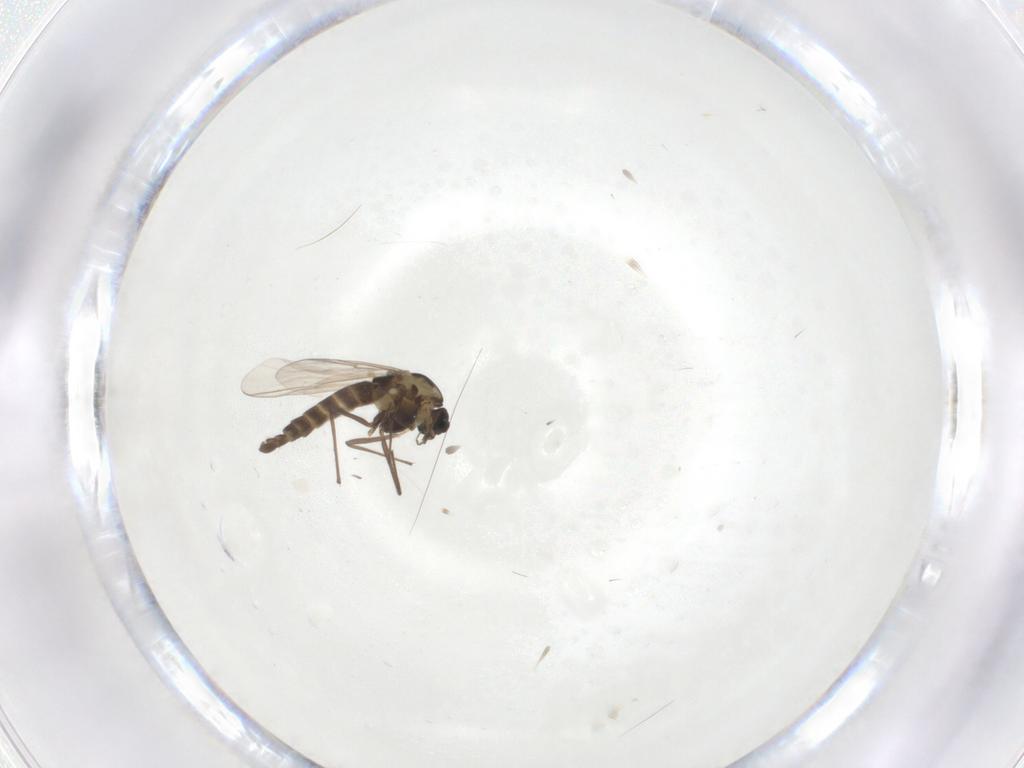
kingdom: Animalia
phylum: Arthropoda
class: Insecta
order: Diptera
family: Chironomidae
